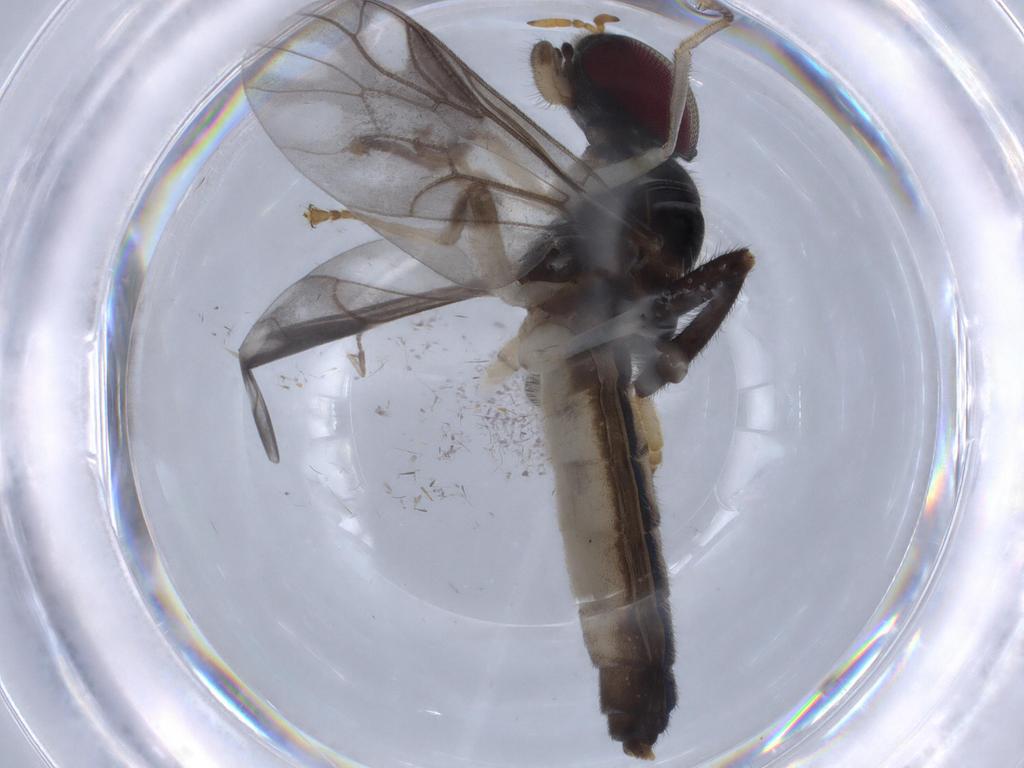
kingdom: Animalia
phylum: Arthropoda
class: Insecta
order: Diptera
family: Stratiomyidae
